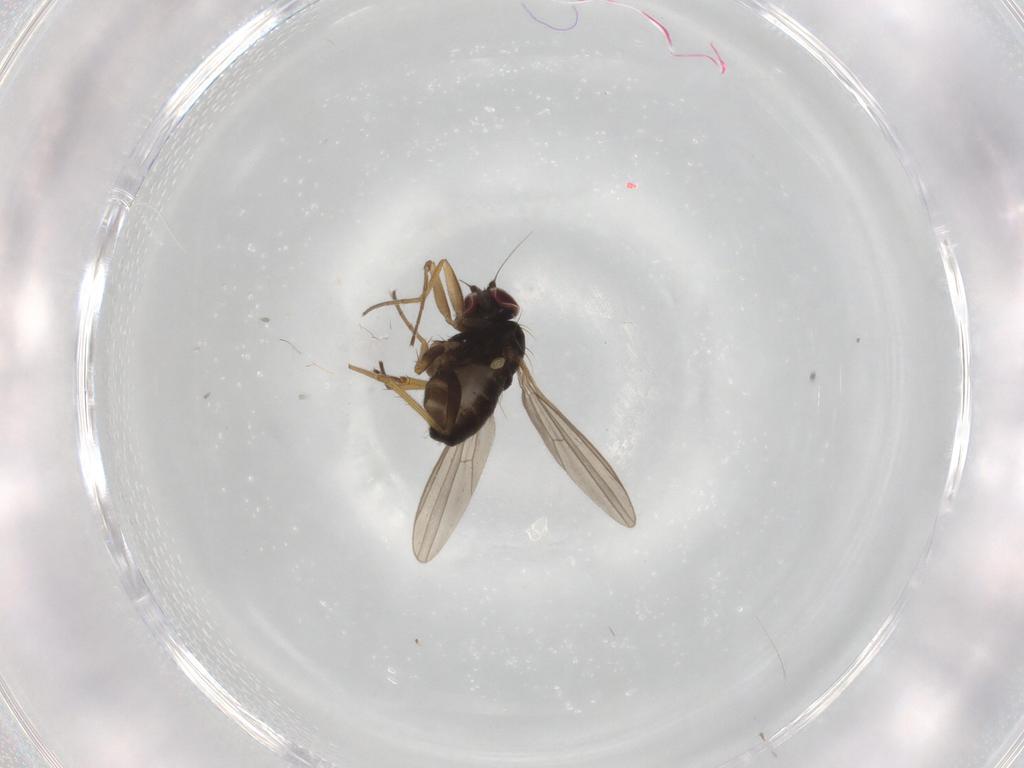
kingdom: Animalia
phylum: Arthropoda
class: Insecta
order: Diptera
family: Dolichopodidae
